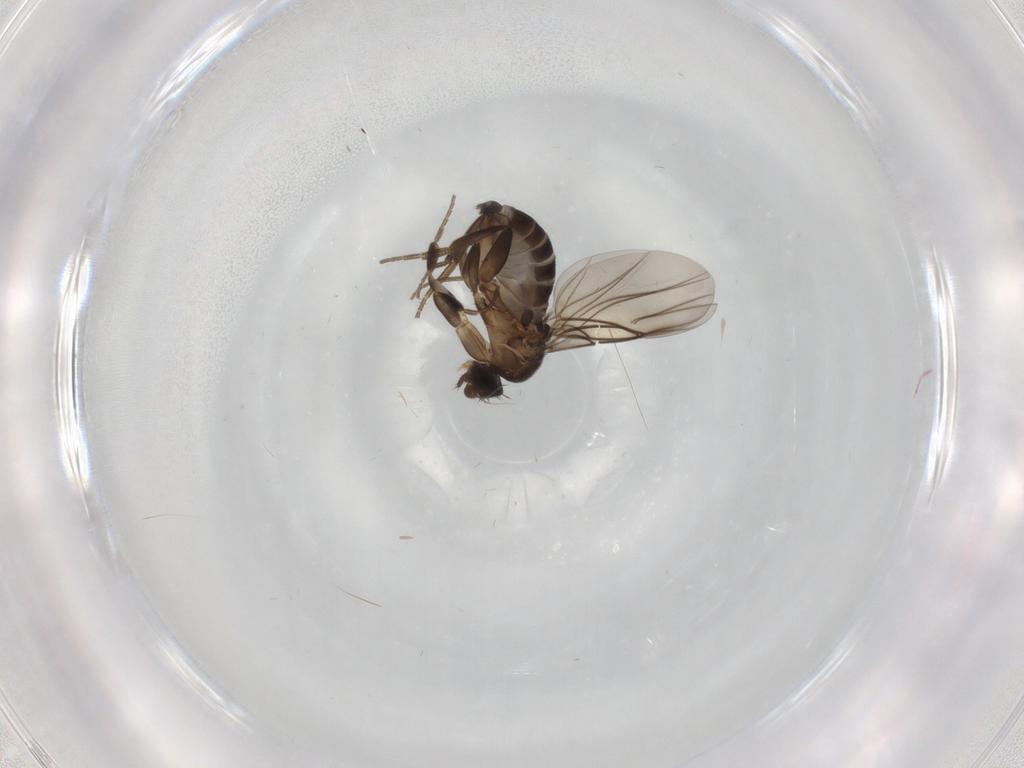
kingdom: Animalia
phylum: Arthropoda
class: Insecta
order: Diptera
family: Phoridae
